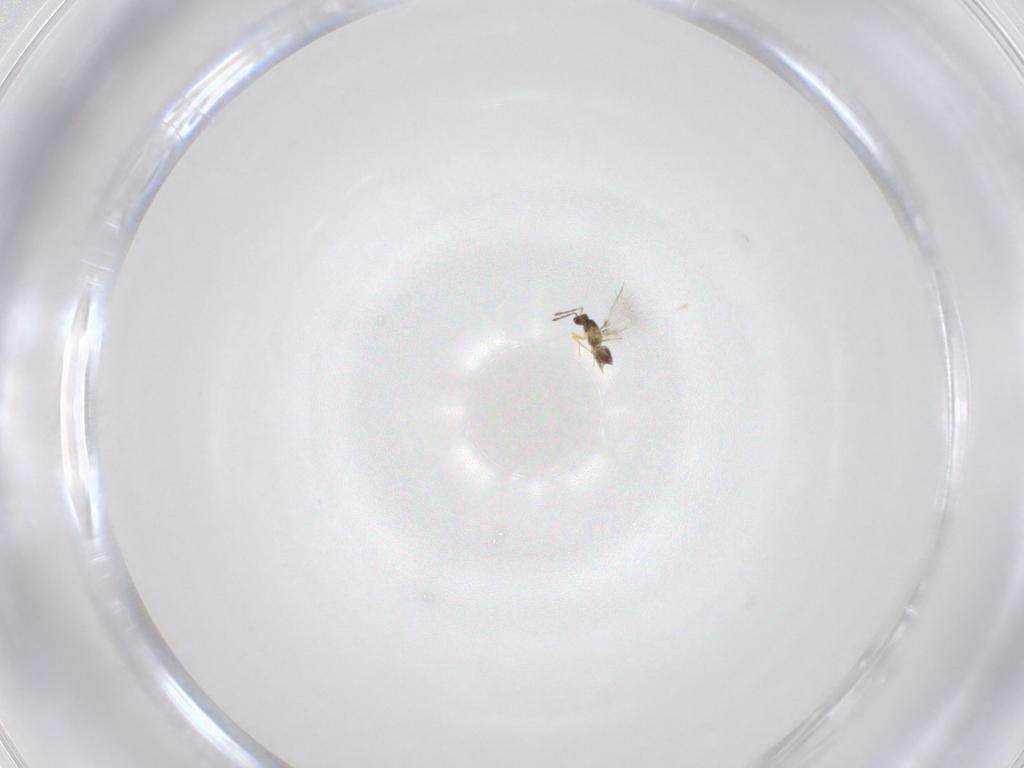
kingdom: Animalia
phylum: Arthropoda
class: Insecta
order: Hymenoptera
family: Mymaridae
